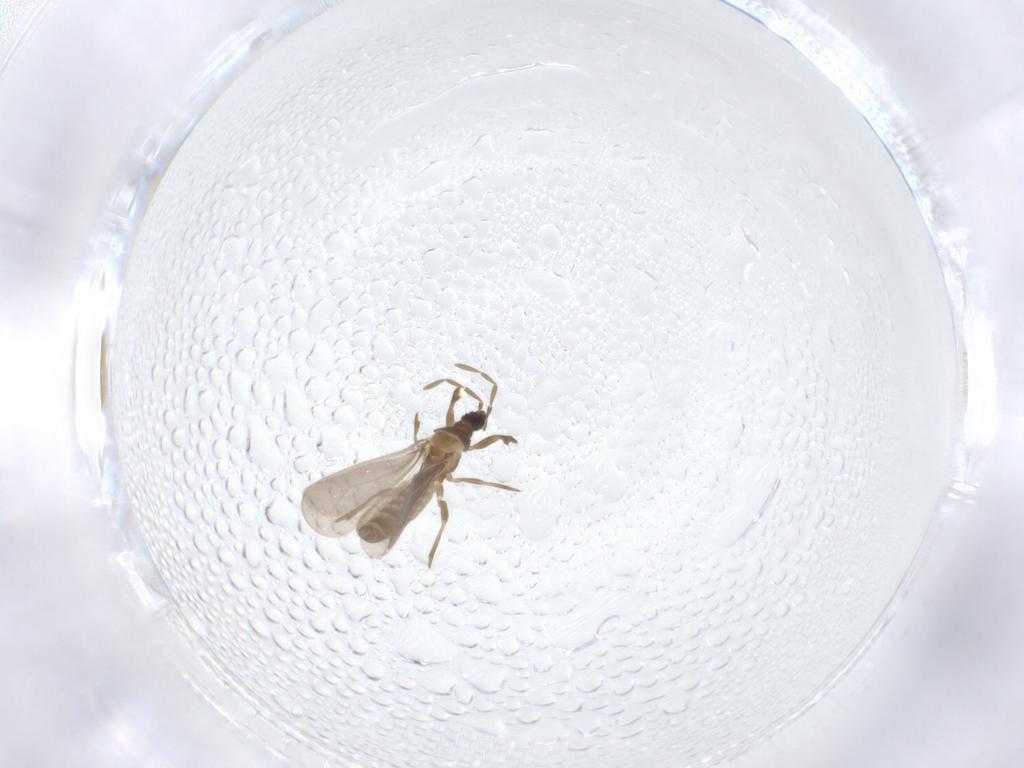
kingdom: Animalia
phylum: Arthropoda
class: Insecta
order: Hemiptera
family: Enicocephalidae
